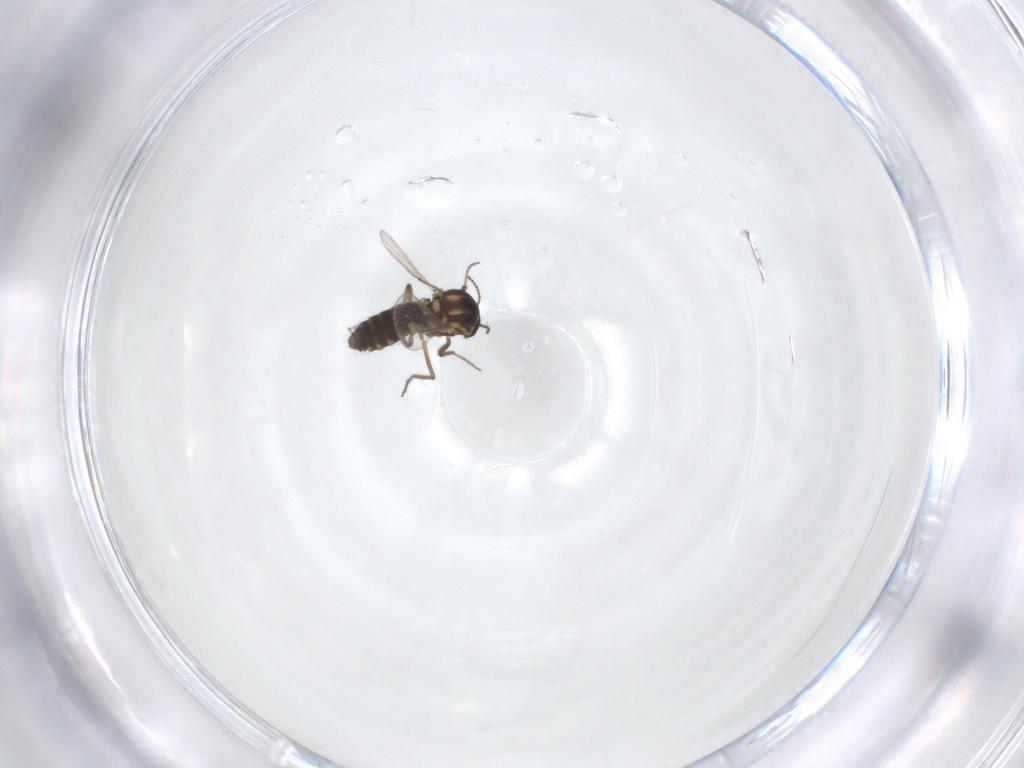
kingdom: Animalia
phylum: Arthropoda
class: Insecta
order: Diptera
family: Ceratopogonidae
